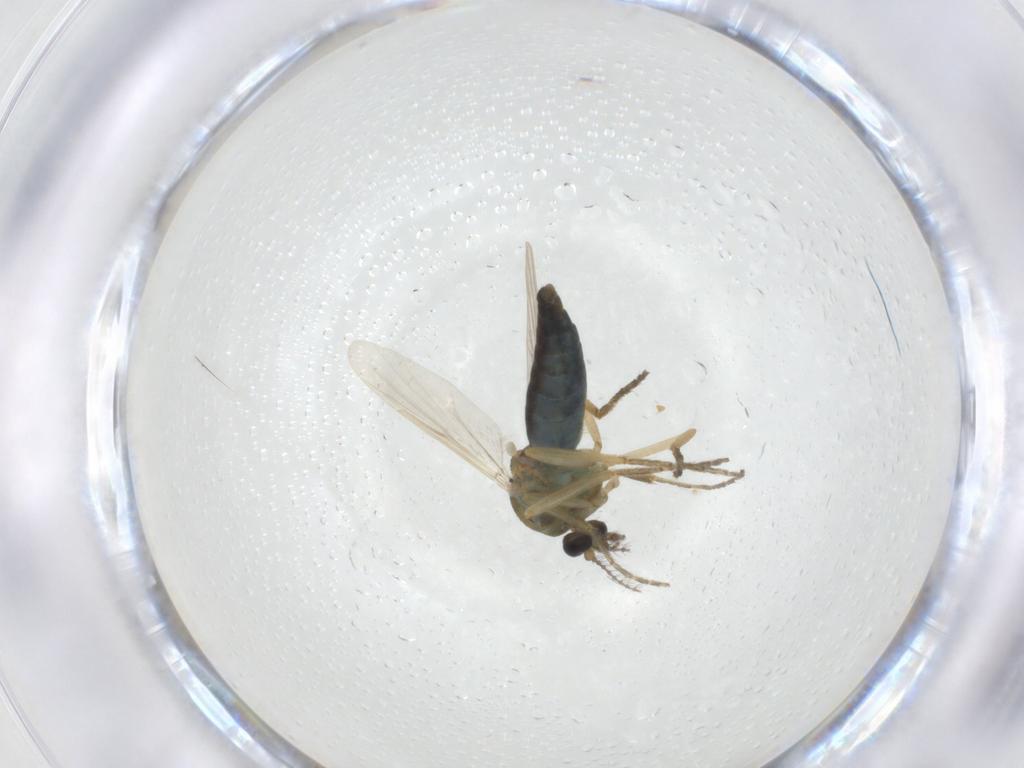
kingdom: Animalia
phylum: Arthropoda
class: Insecta
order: Diptera
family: Ceratopogonidae
